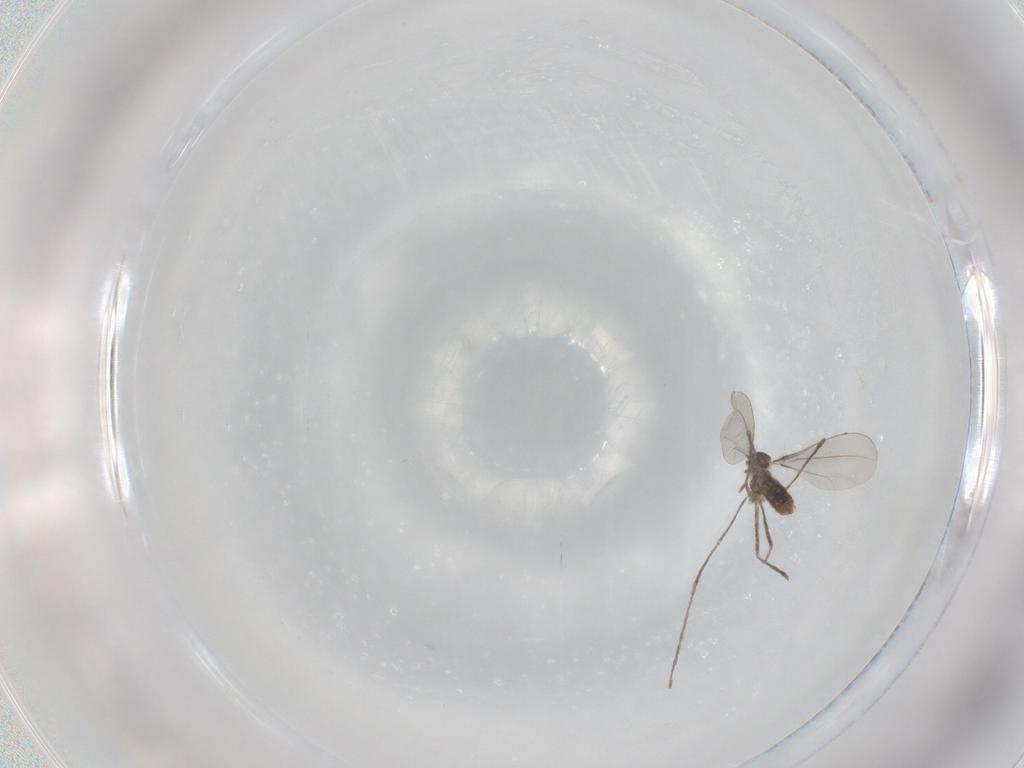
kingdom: Animalia
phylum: Arthropoda
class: Insecta
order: Diptera
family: Cecidomyiidae
